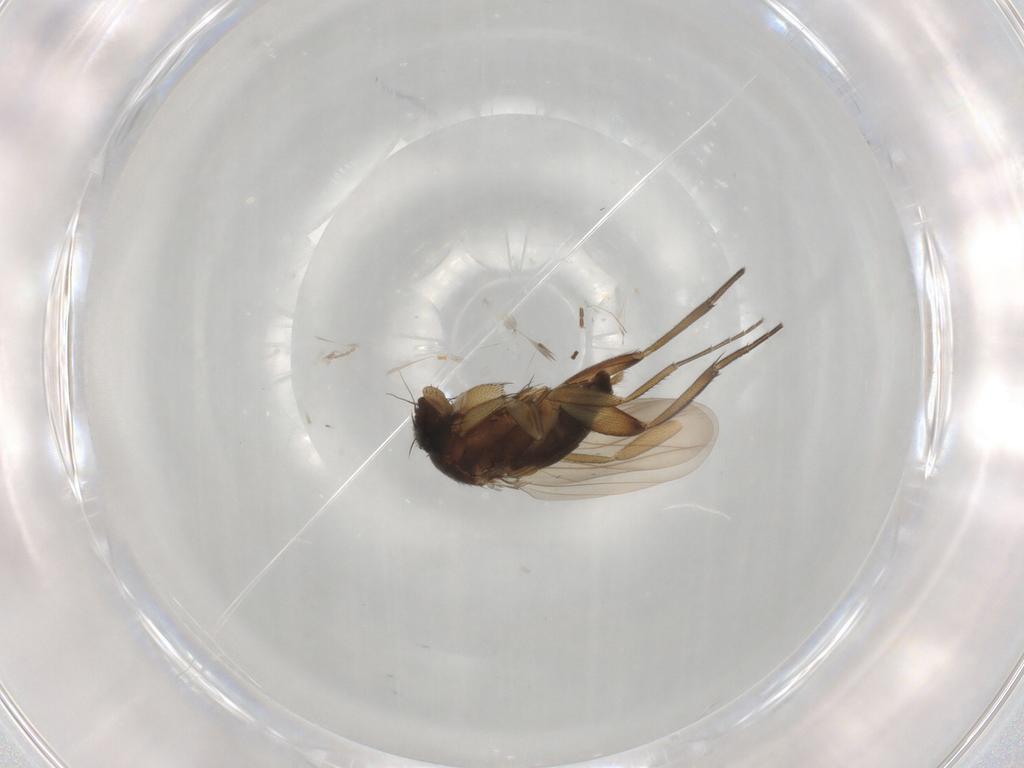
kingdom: Animalia
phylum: Arthropoda
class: Insecta
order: Diptera
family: Phoridae
